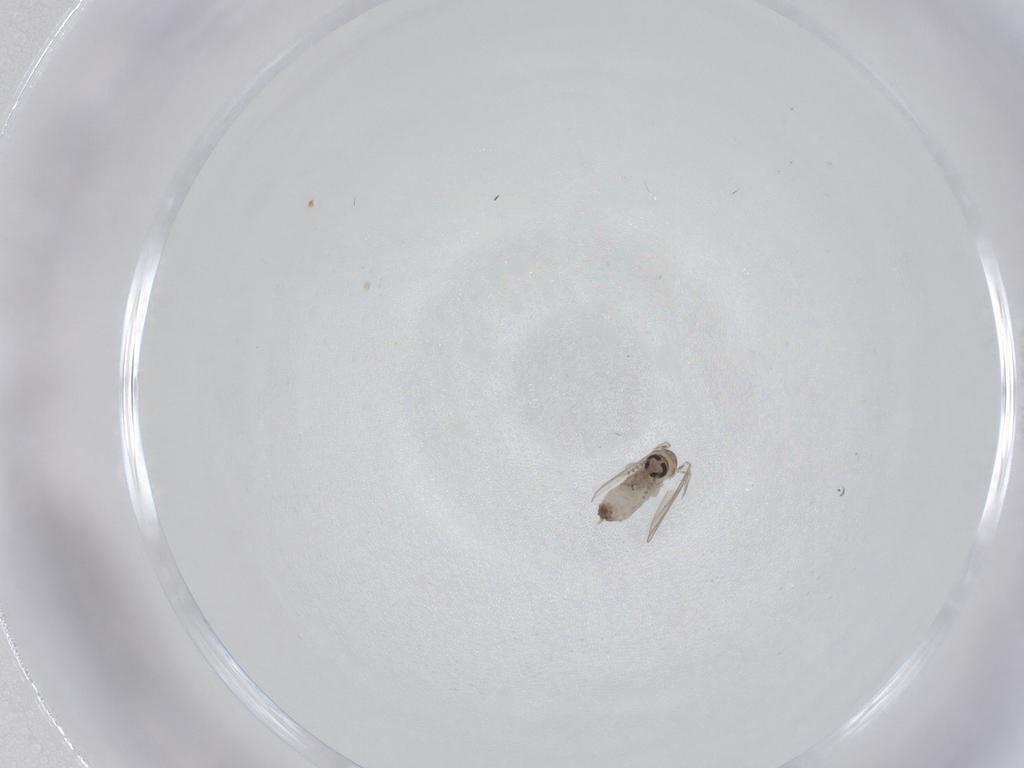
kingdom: Animalia
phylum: Arthropoda
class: Insecta
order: Diptera
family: Psychodidae
